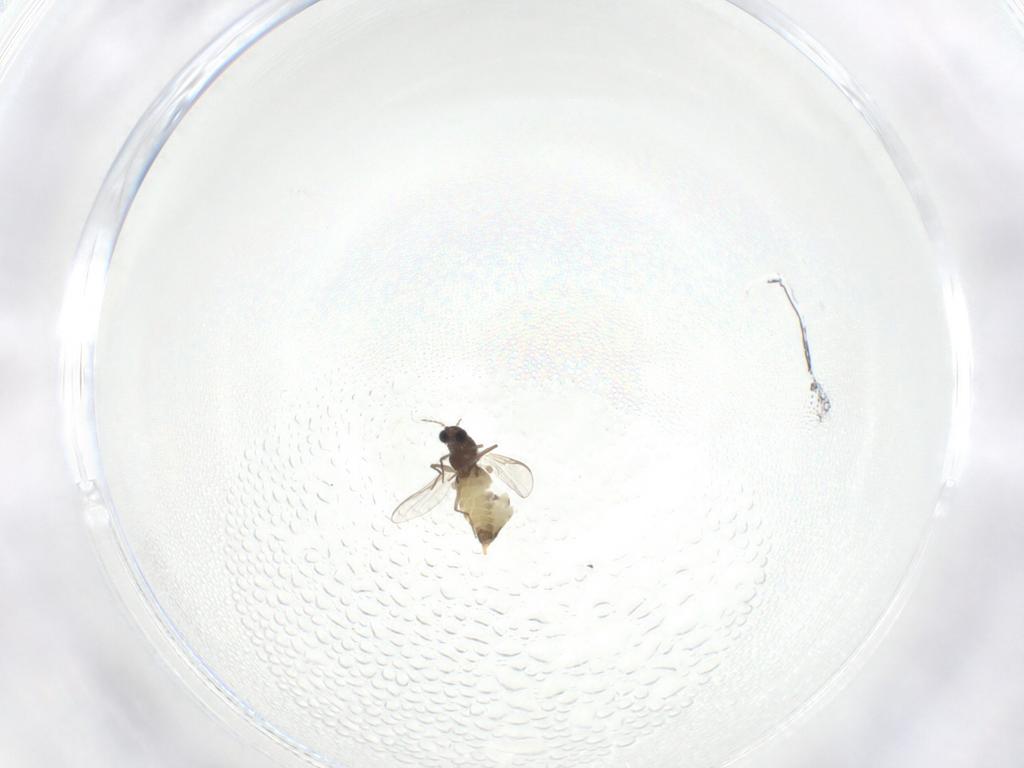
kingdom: Animalia
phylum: Arthropoda
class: Insecta
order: Diptera
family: Chironomidae
